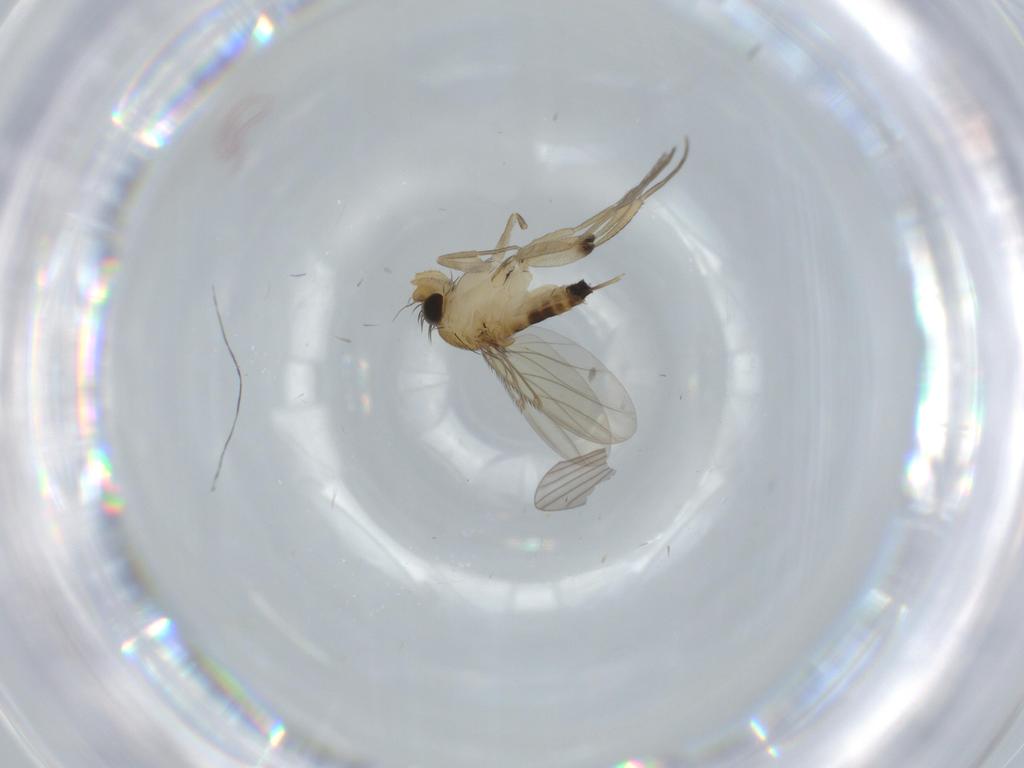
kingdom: Animalia
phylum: Arthropoda
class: Insecta
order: Diptera
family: Phoridae
